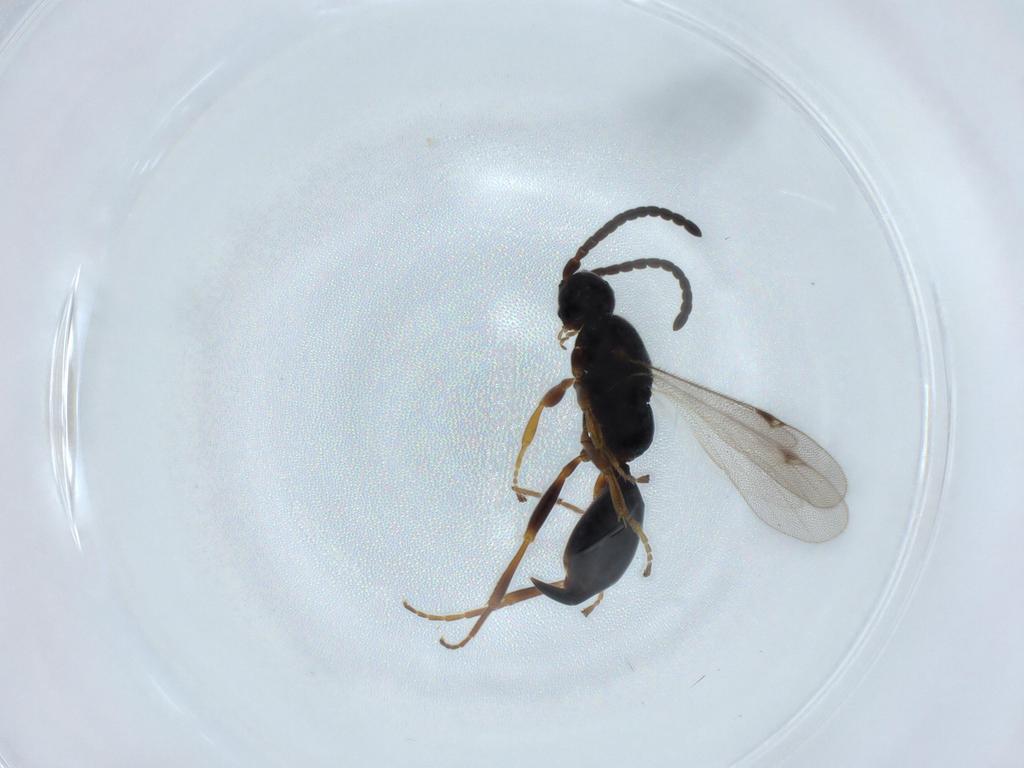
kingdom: Animalia
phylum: Arthropoda
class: Insecta
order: Hymenoptera
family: Proctotrupidae
